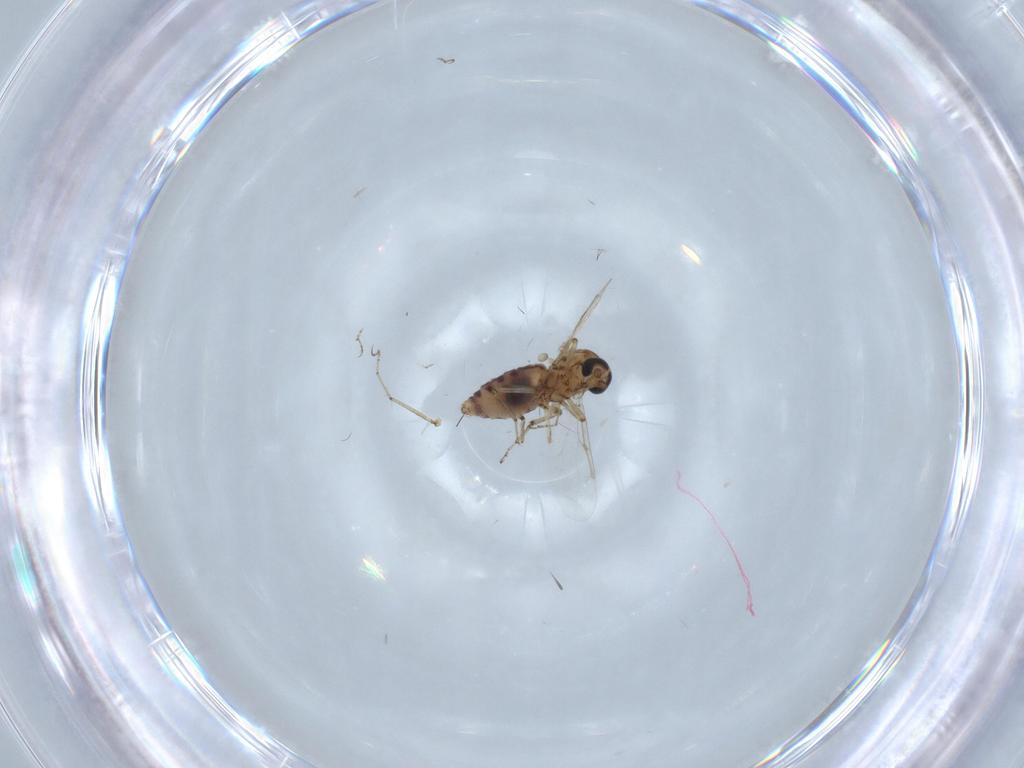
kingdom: Animalia
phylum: Arthropoda
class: Insecta
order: Diptera
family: Ceratopogonidae
